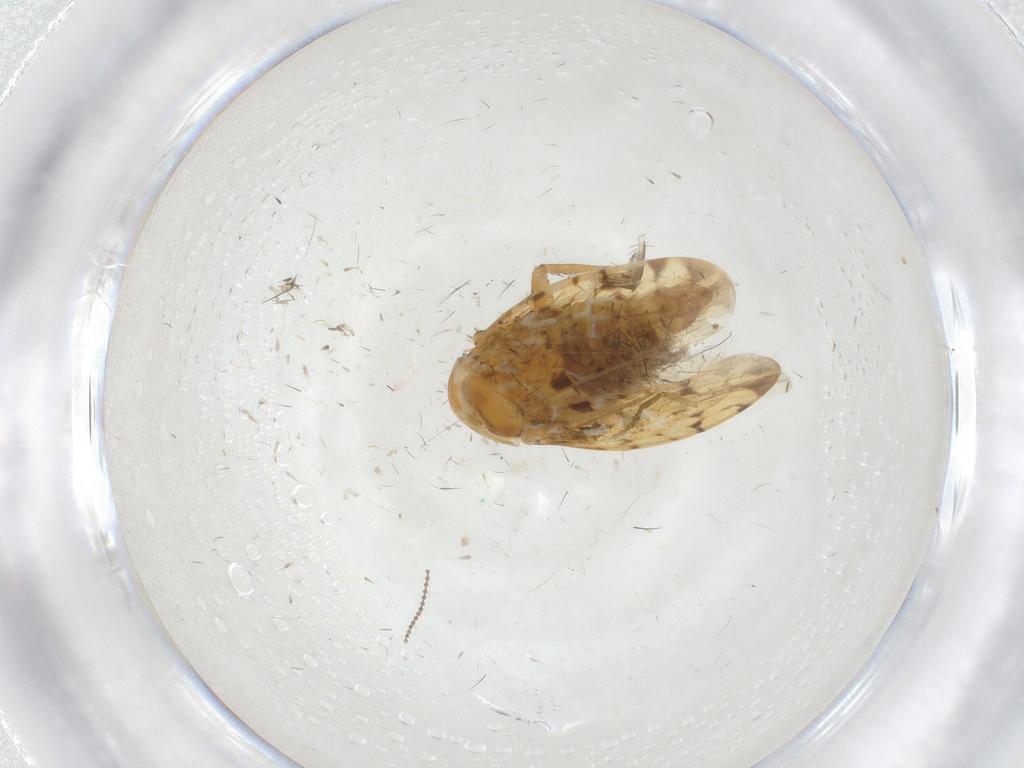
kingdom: Animalia
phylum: Arthropoda
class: Insecta
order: Hemiptera
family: Cicadellidae
